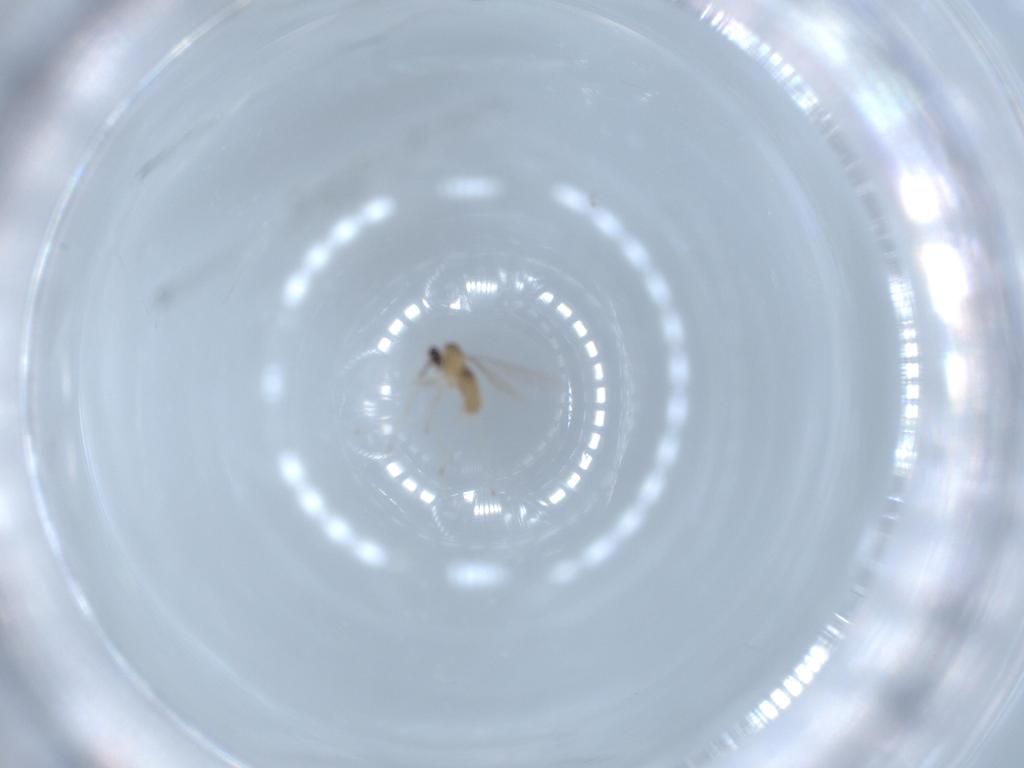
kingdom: Animalia
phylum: Arthropoda
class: Insecta
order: Diptera
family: Cecidomyiidae
